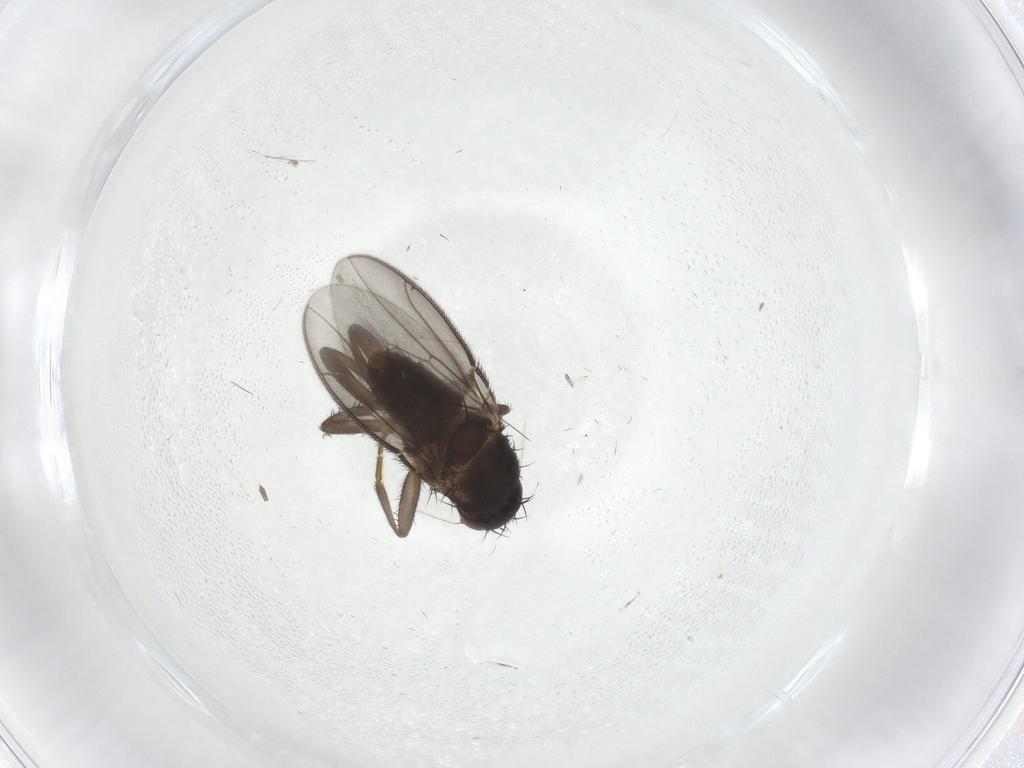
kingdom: Animalia
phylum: Arthropoda
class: Insecta
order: Diptera
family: Sphaeroceridae
